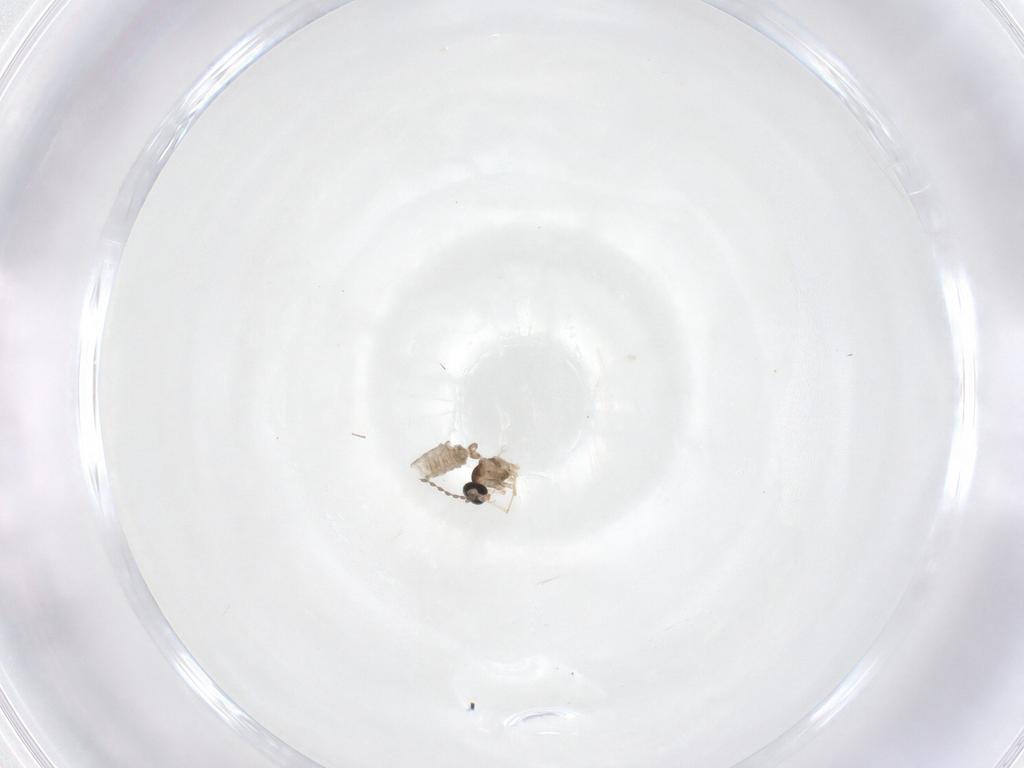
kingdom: Animalia
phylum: Arthropoda
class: Insecta
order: Diptera
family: Cecidomyiidae
